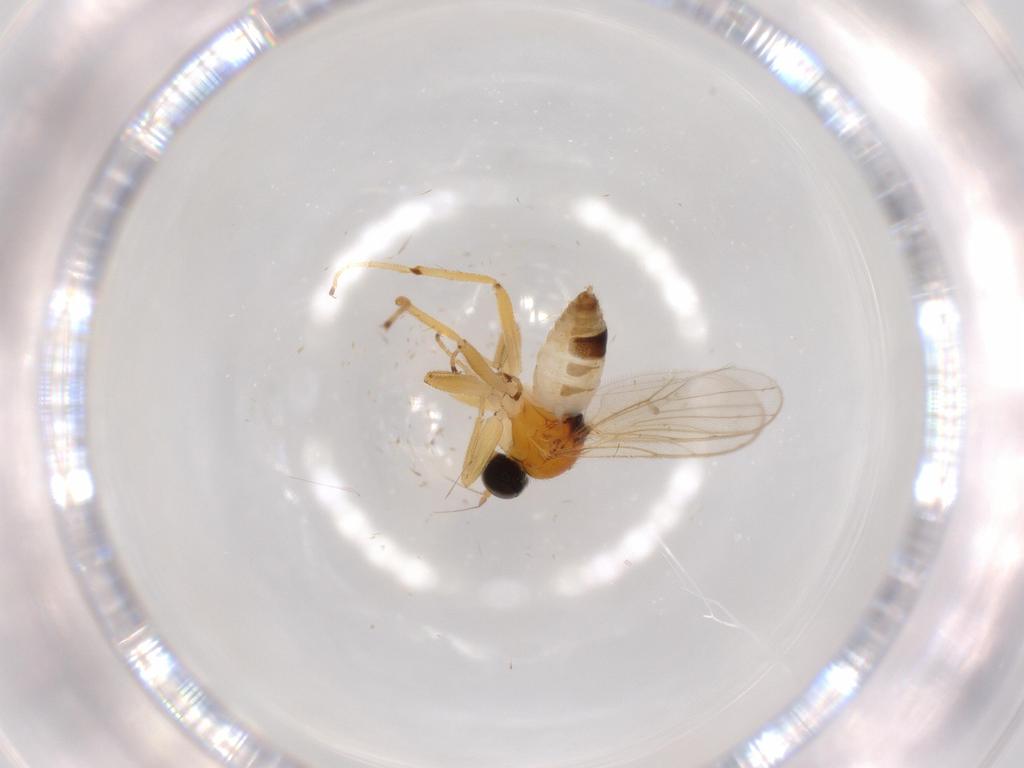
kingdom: Animalia
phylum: Arthropoda
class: Insecta
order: Diptera
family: Hybotidae
